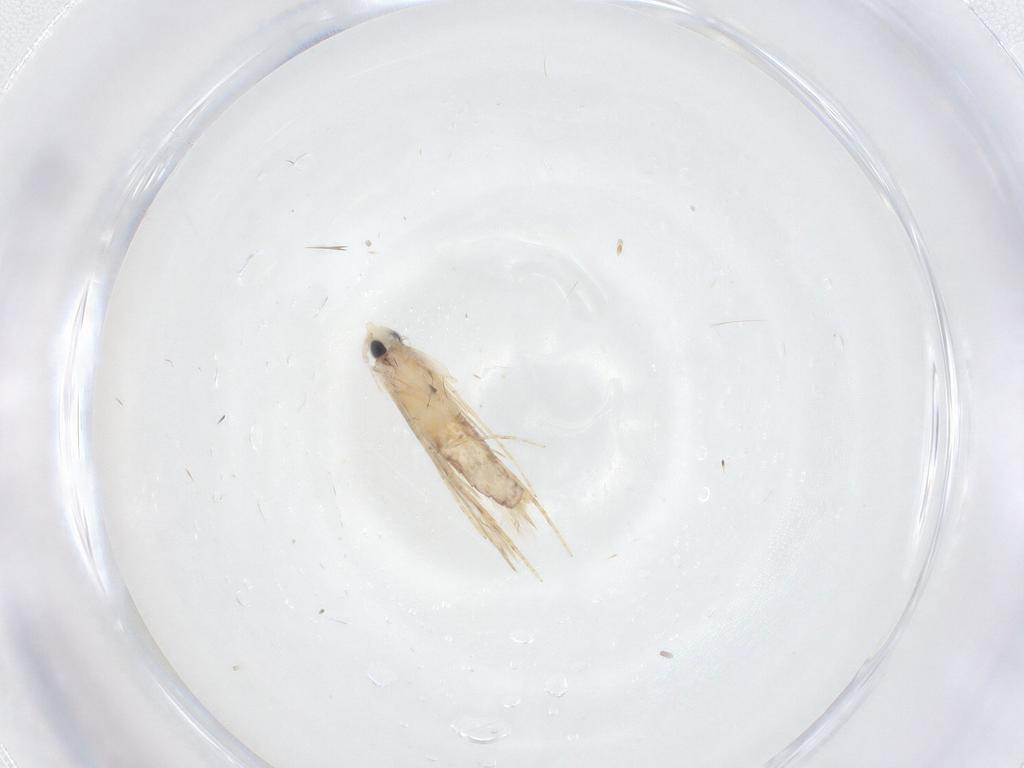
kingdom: Animalia
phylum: Arthropoda
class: Insecta
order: Lepidoptera
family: Tineidae
